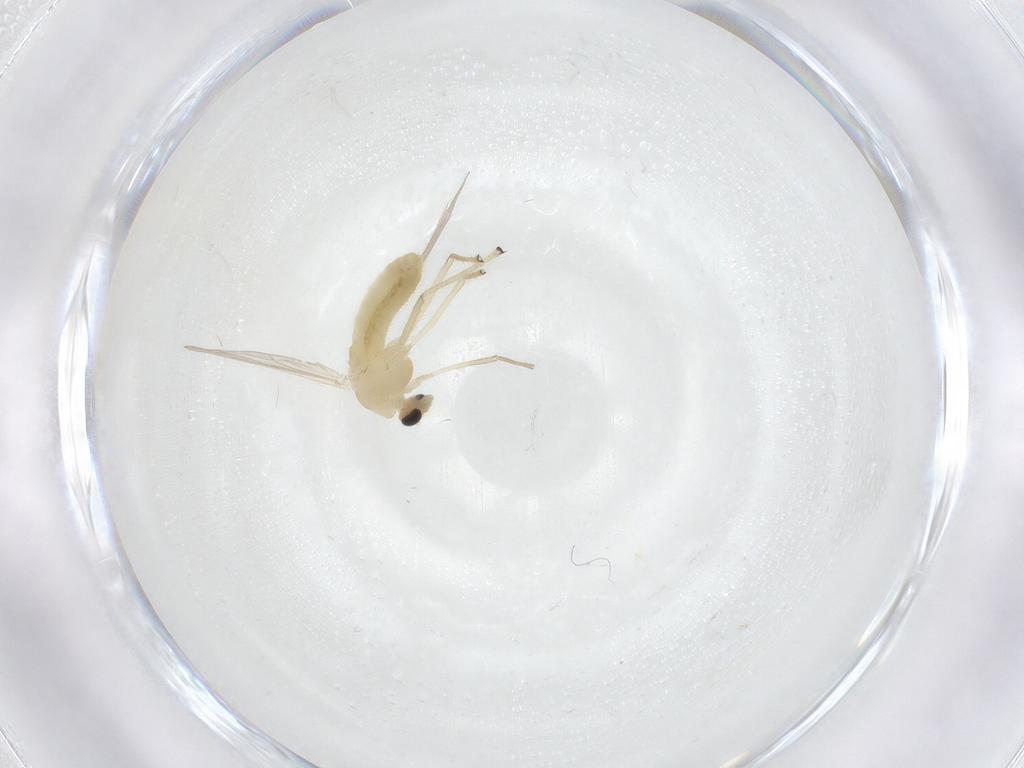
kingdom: Animalia
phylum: Arthropoda
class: Insecta
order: Diptera
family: Chironomidae
